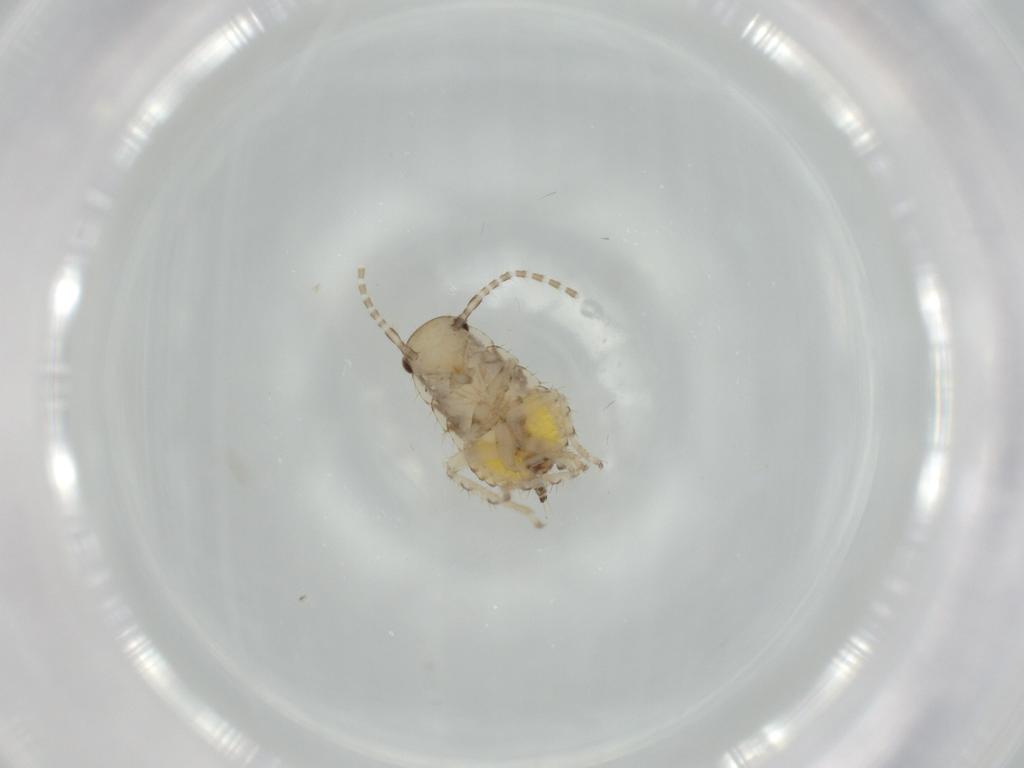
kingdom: Animalia
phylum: Arthropoda
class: Insecta
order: Blattodea
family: Ectobiidae
